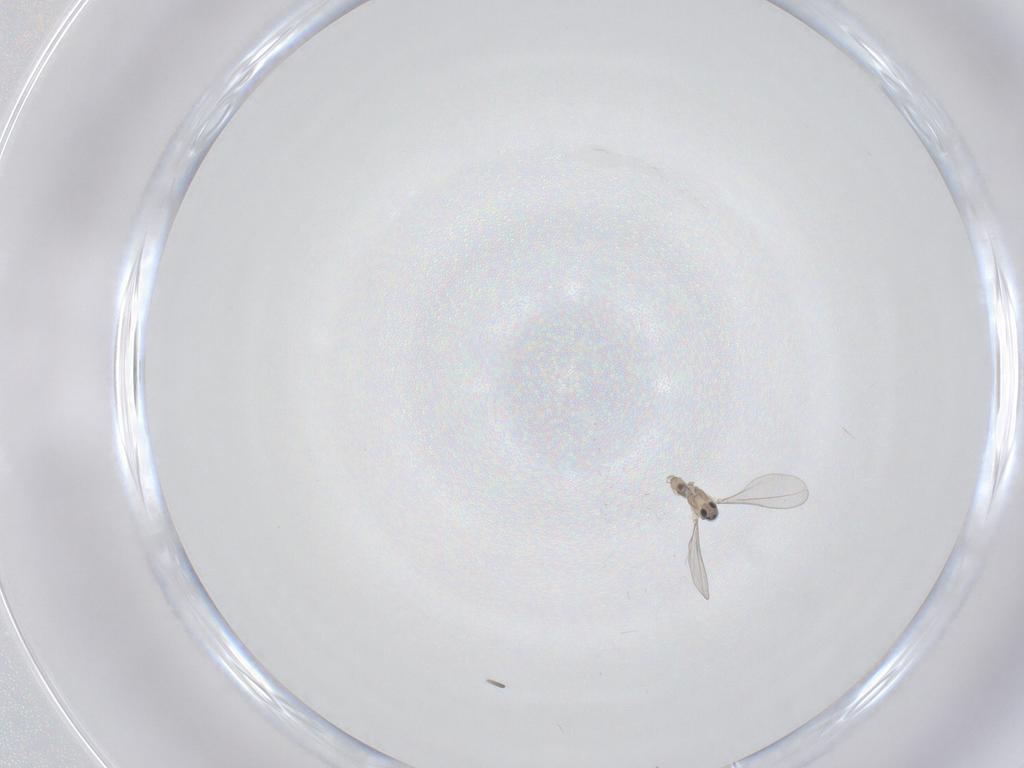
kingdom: Animalia
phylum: Arthropoda
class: Insecta
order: Diptera
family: Cecidomyiidae
